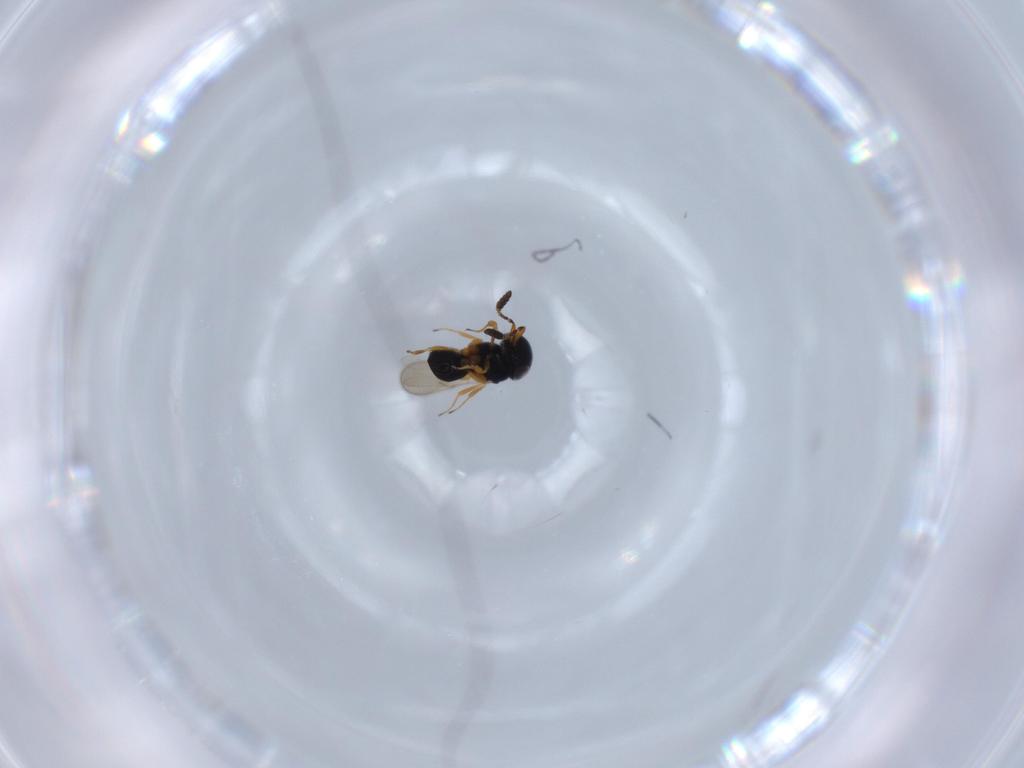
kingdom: Animalia
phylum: Arthropoda
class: Insecta
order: Hymenoptera
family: Scelionidae
